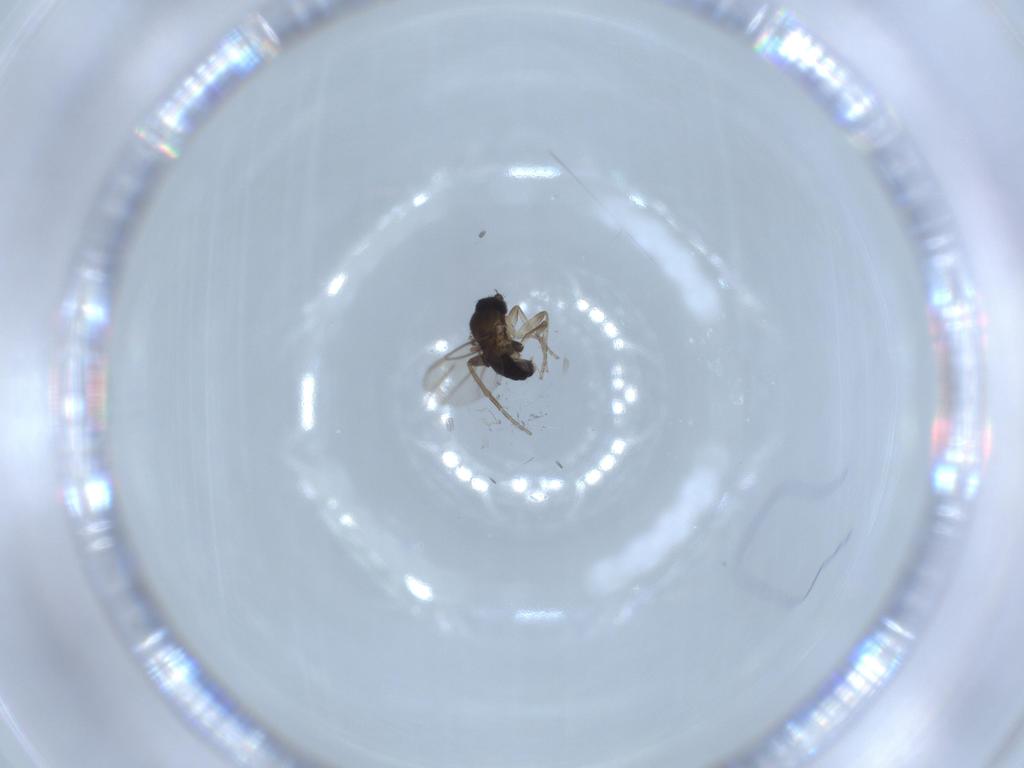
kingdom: Animalia
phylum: Arthropoda
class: Insecta
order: Diptera
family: Phoridae
